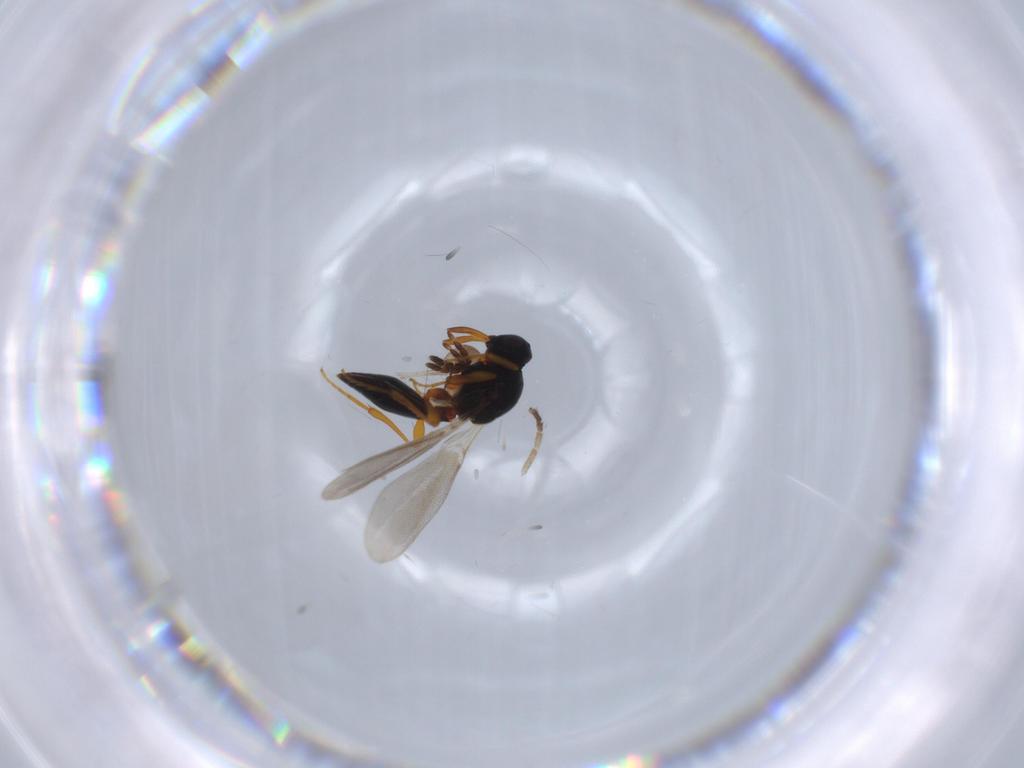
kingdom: Animalia
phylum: Arthropoda
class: Insecta
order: Hymenoptera
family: Platygastridae
